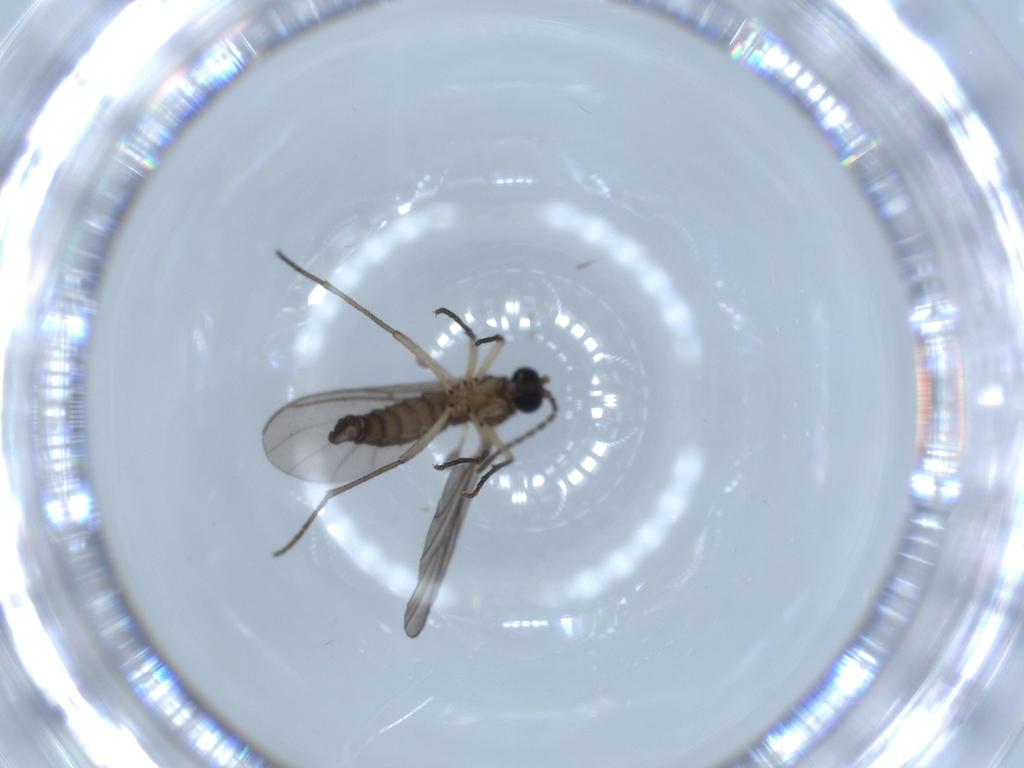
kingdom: Animalia
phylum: Arthropoda
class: Insecta
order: Diptera
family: Sciaridae
